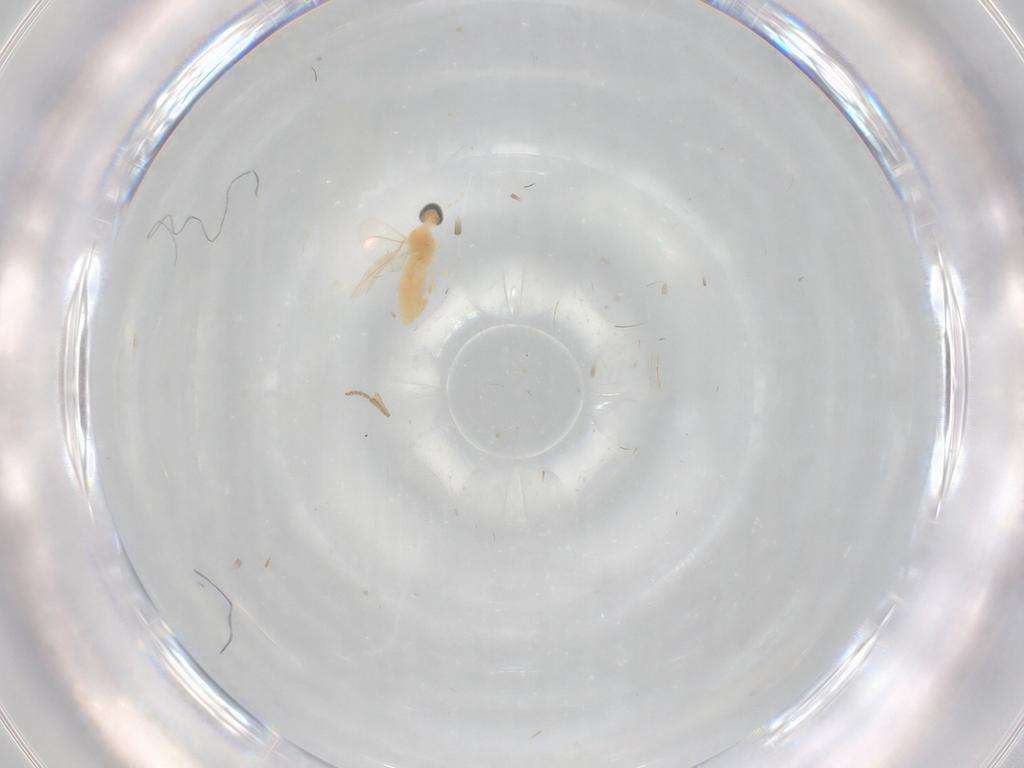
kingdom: Animalia
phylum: Arthropoda
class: Insecta
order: Diptera
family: Cecidomyiidae
